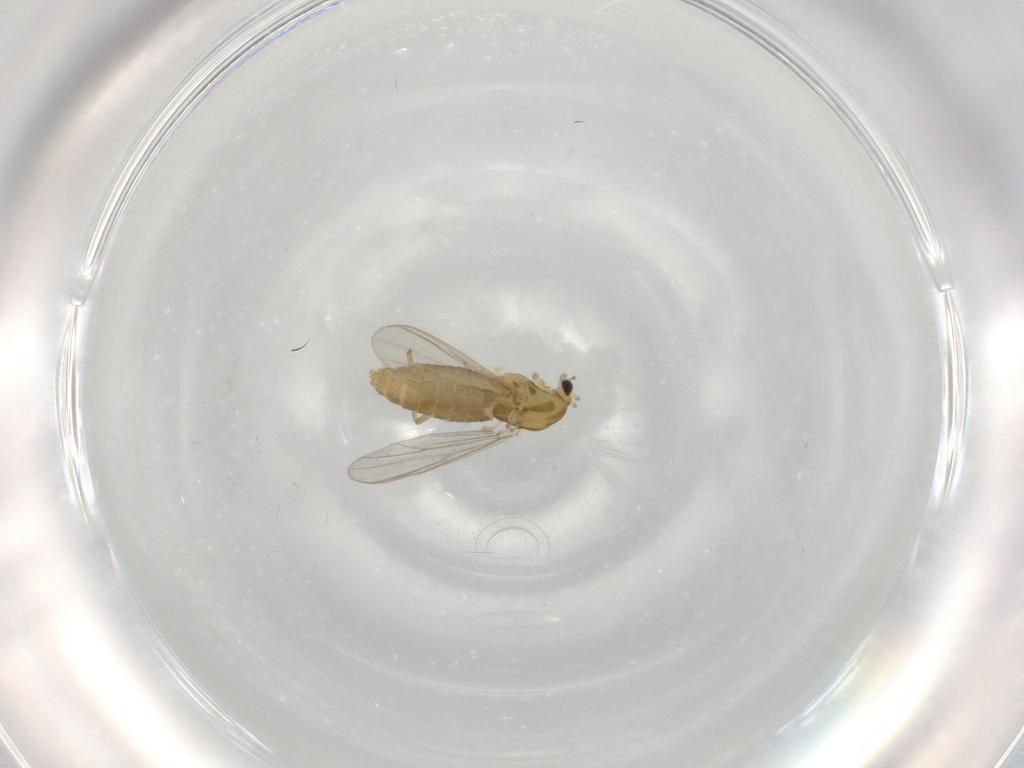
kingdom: Animalia
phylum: Arthropoda
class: Insecta
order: Diptera
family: Chironomidae
